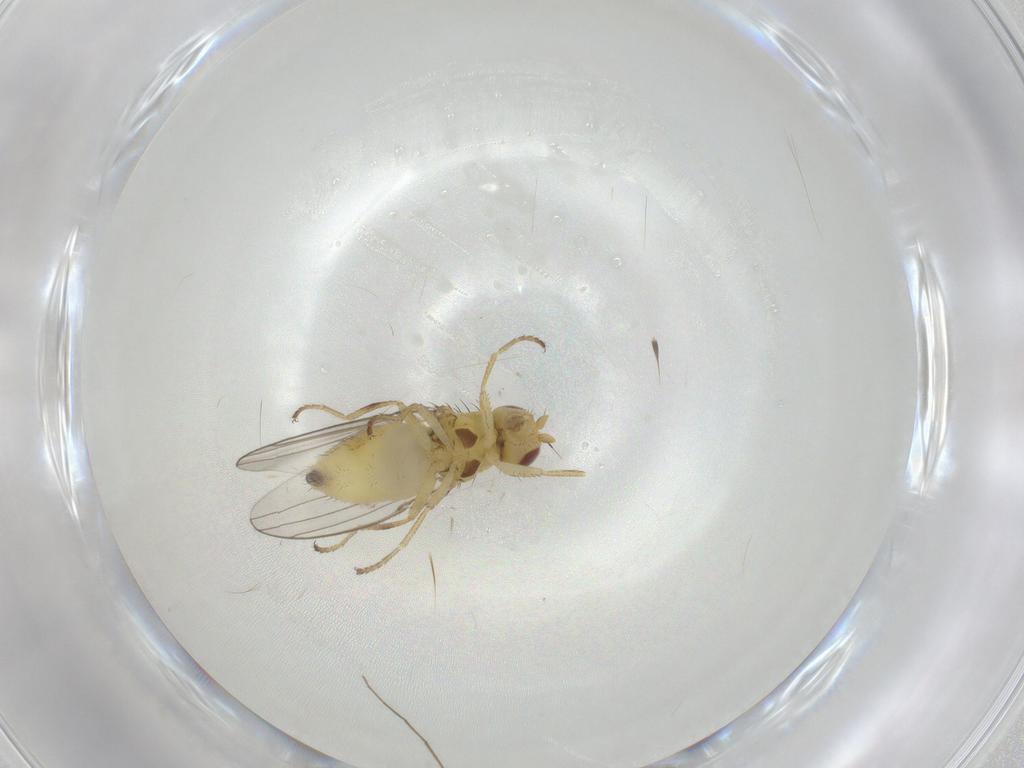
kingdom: Animalia
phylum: Arthropoda
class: Insecta
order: Diptera
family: Chloropidae
